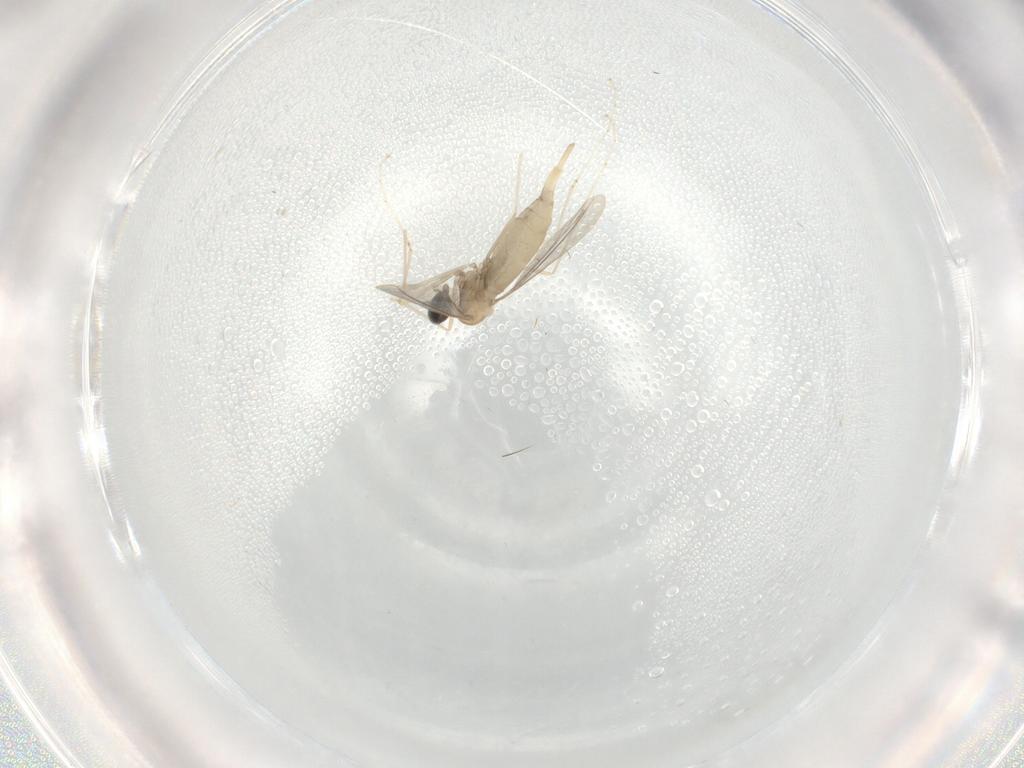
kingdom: Animalia
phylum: Arthropoda
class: Insecta
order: Diptera
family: Cecidomyiidae
